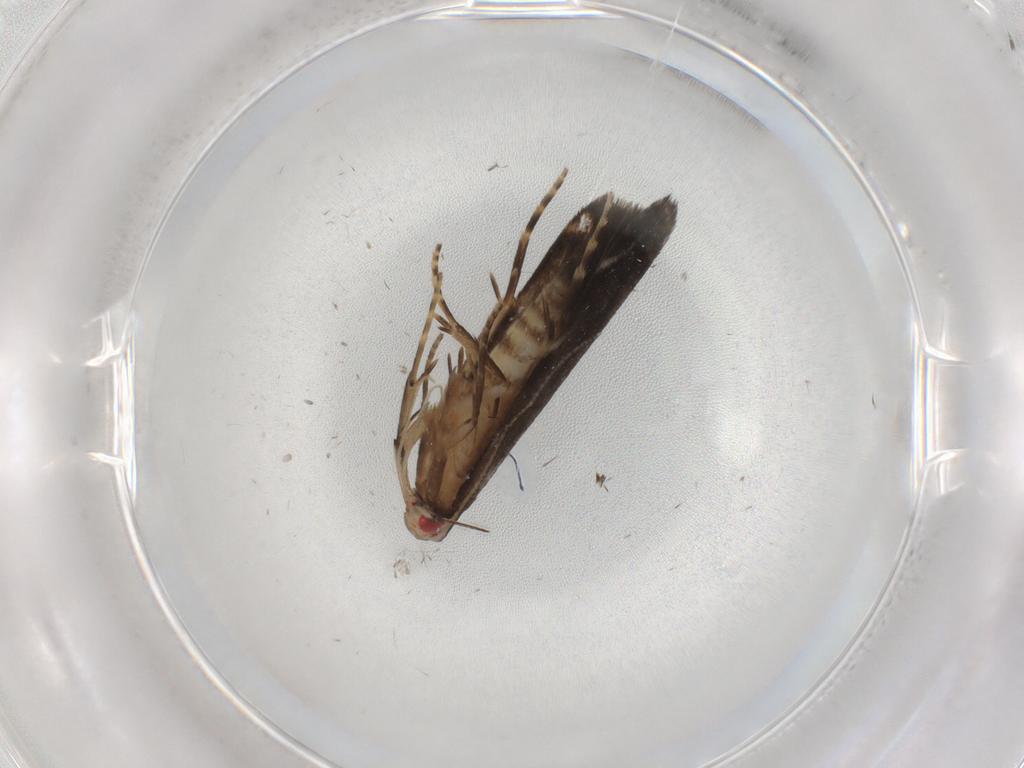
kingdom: Animalia
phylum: Arthropoda
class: Insecta
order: Lepidoptera
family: Gelechiidae
